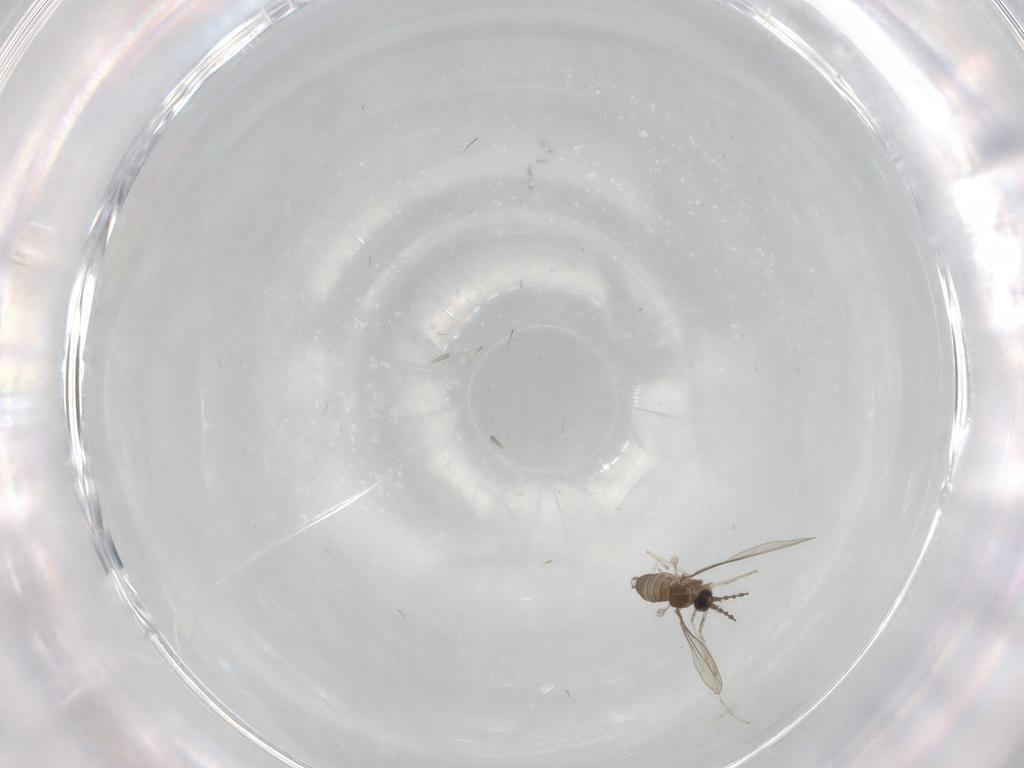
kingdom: Animalia
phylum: Arthropoda
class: Insecta
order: Diptera
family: Cecidomyiidae
